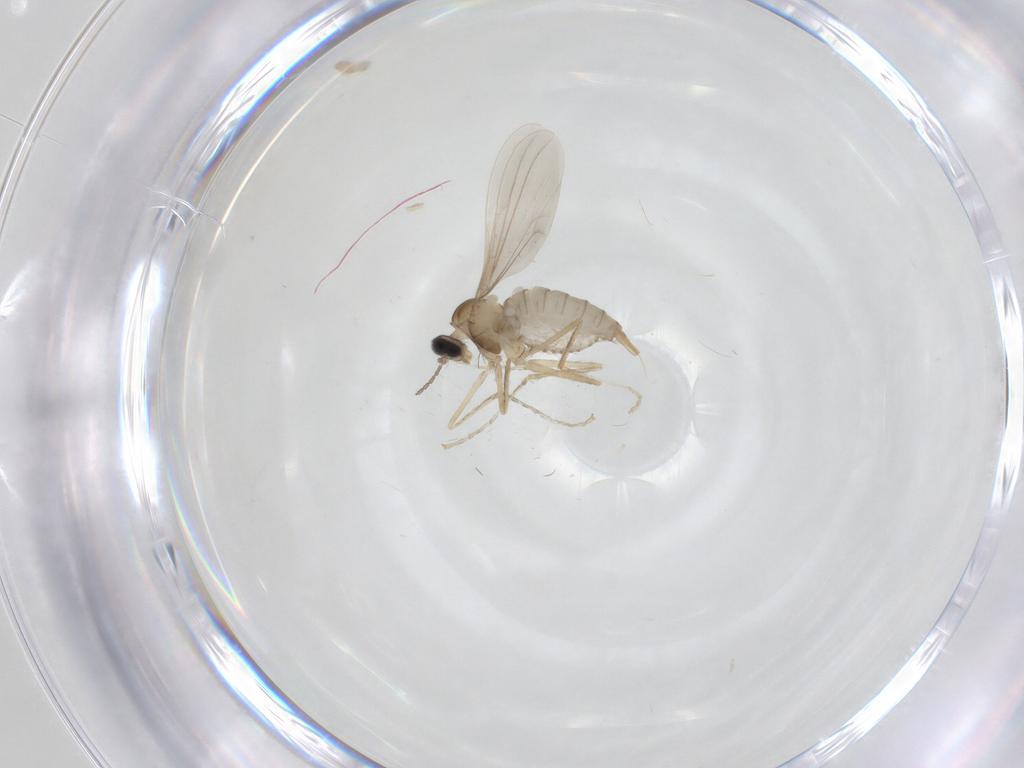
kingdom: Animalia
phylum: Arthropoda
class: Insecta
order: Diptera
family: Cecidomyiidae
